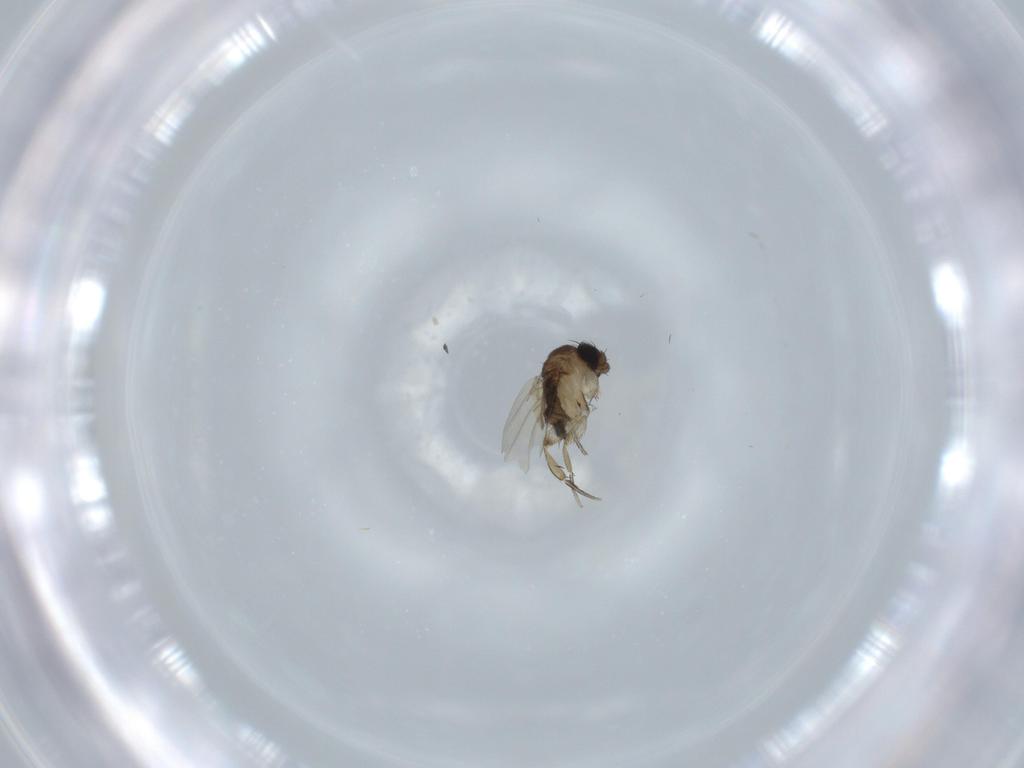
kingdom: Animalia
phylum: Arthropoda
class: Insecta
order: Diptera
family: Phoridae
